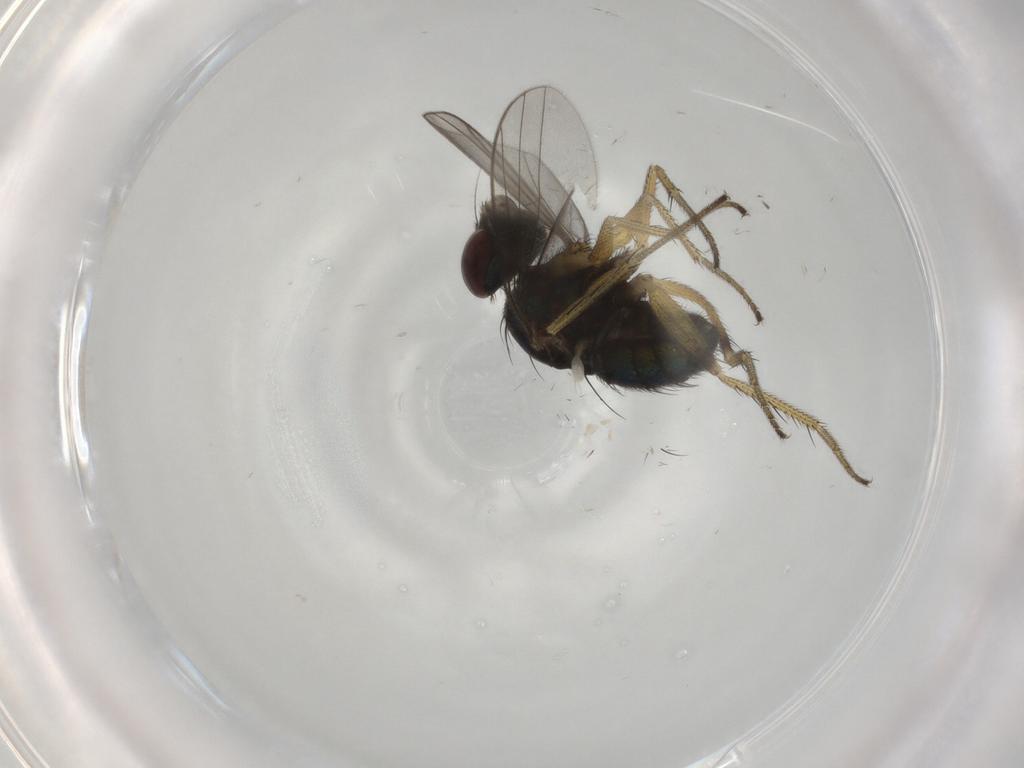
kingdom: Animalia
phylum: Arthropoda
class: Insecta
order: Diptera
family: Dolichopodidae
